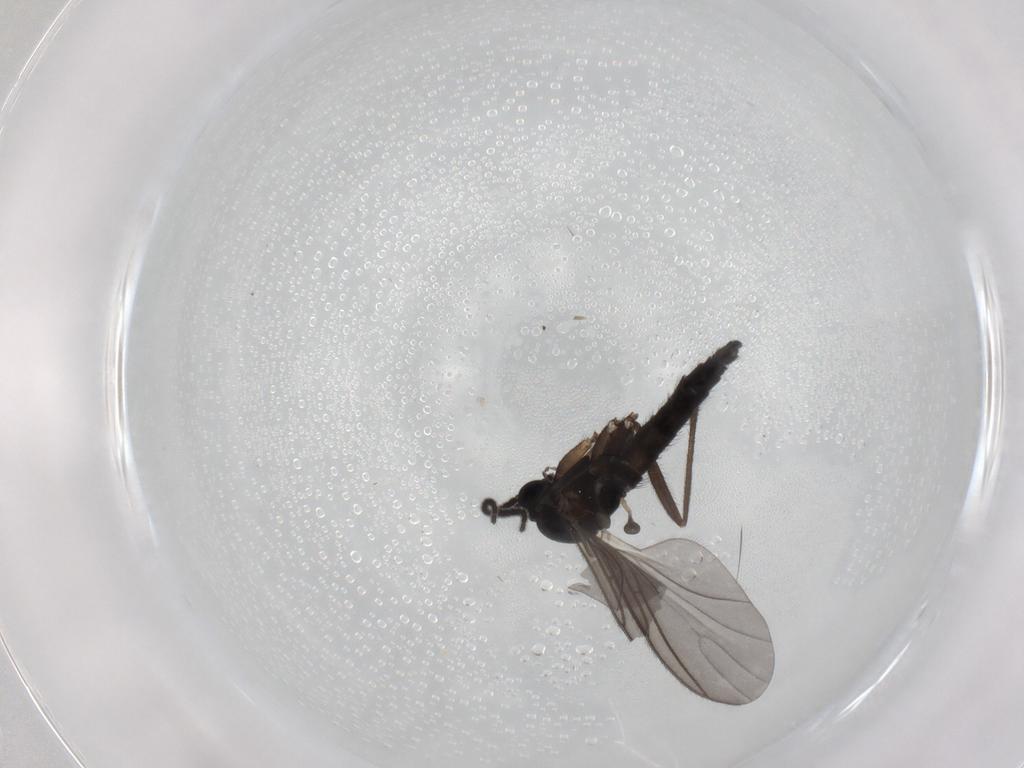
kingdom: Animalia
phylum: Arthropoda
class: Insecta
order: Diptera
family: Sciaridae
